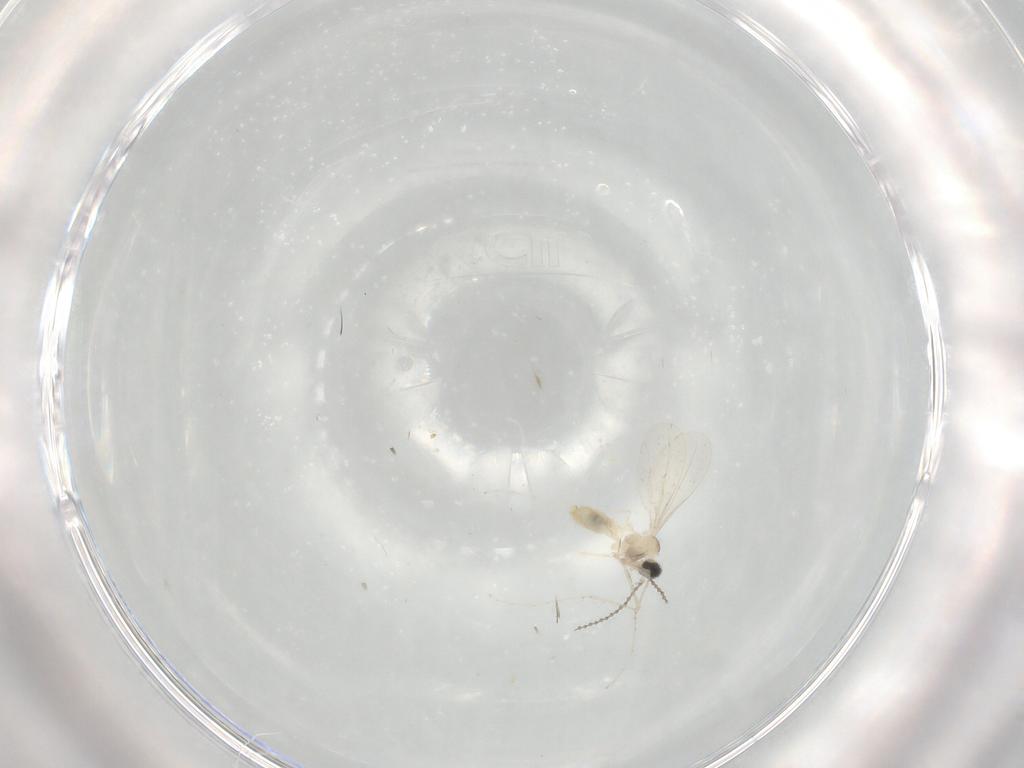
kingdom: Animalia
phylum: Arthropoda
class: Insecta
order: Diptera
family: Cecidomyiidae
